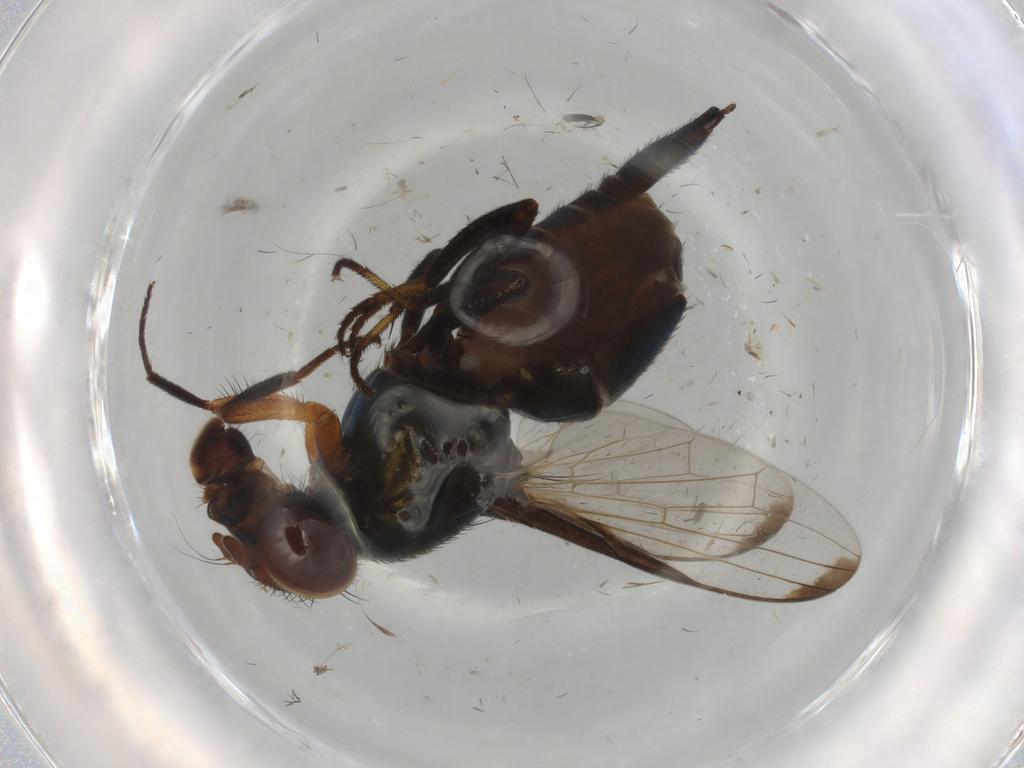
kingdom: Animalia
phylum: Arthropoda
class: Insecta
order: Diptera
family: Ulidiidae
